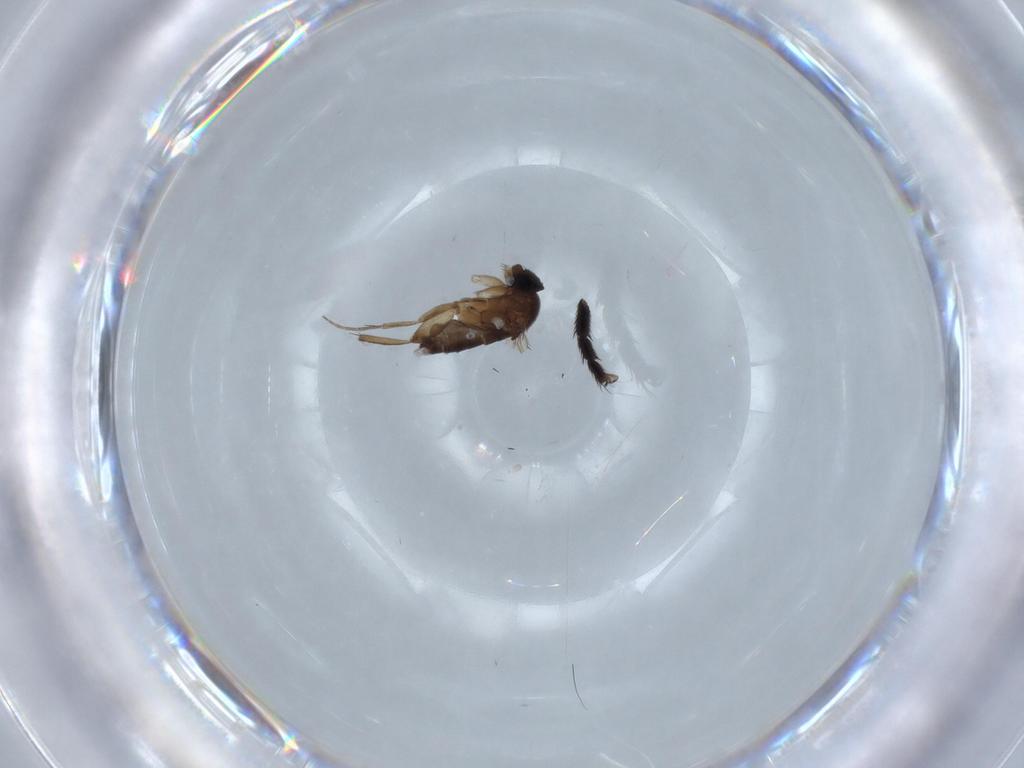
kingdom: Animalia
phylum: Arthropoda
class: Insecta
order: Diptera
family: Phoridae
